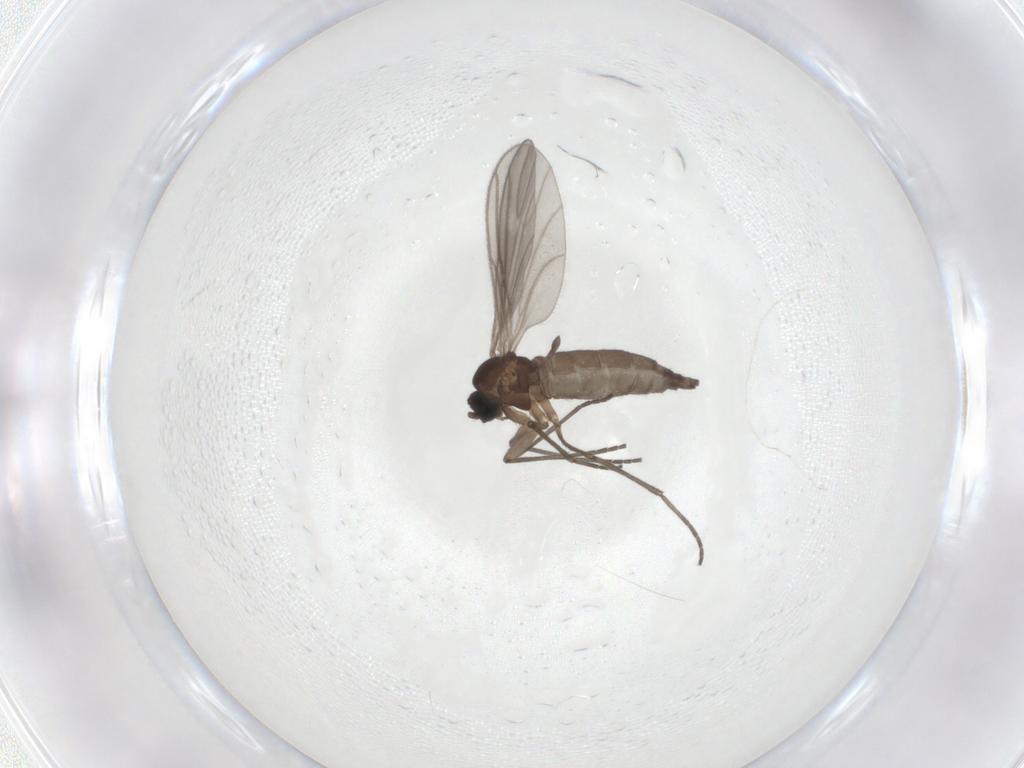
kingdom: Animalia
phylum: Arthropoda
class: Insecta
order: Diptera
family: Sciaridae
